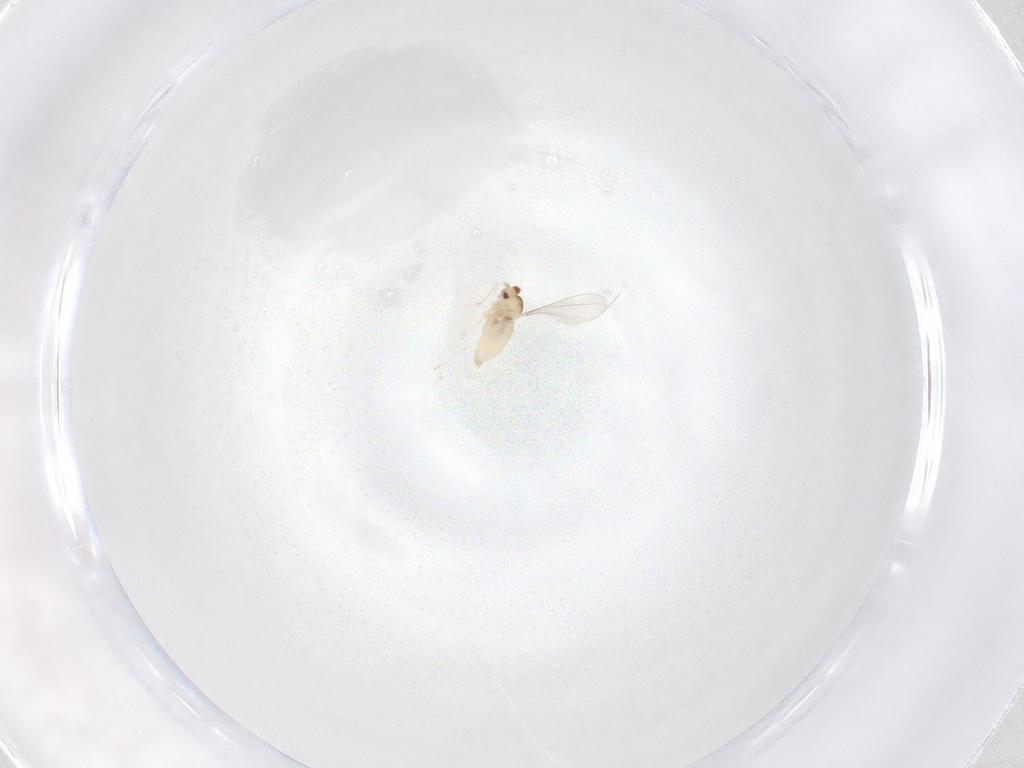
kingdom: Animalia
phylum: Arthropoda
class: Insecta
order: Diptera
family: Cecidomyiidae
